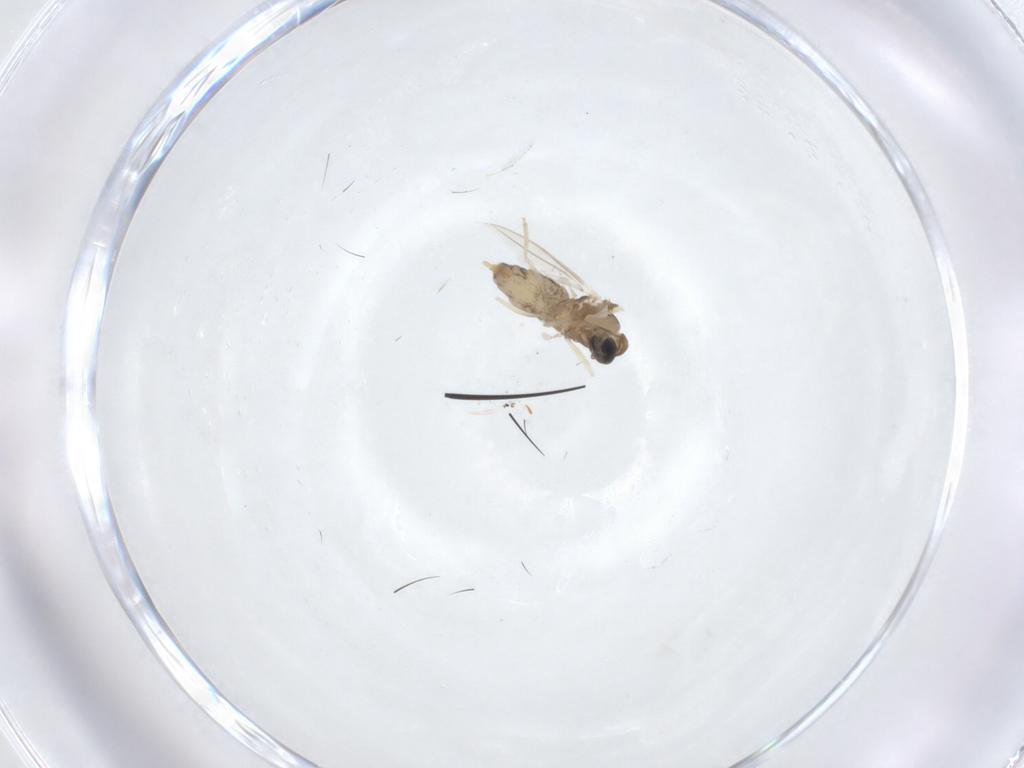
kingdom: Animalia
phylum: Arthropoda
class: Insecta
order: Diptera
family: Cecidomyiidae
